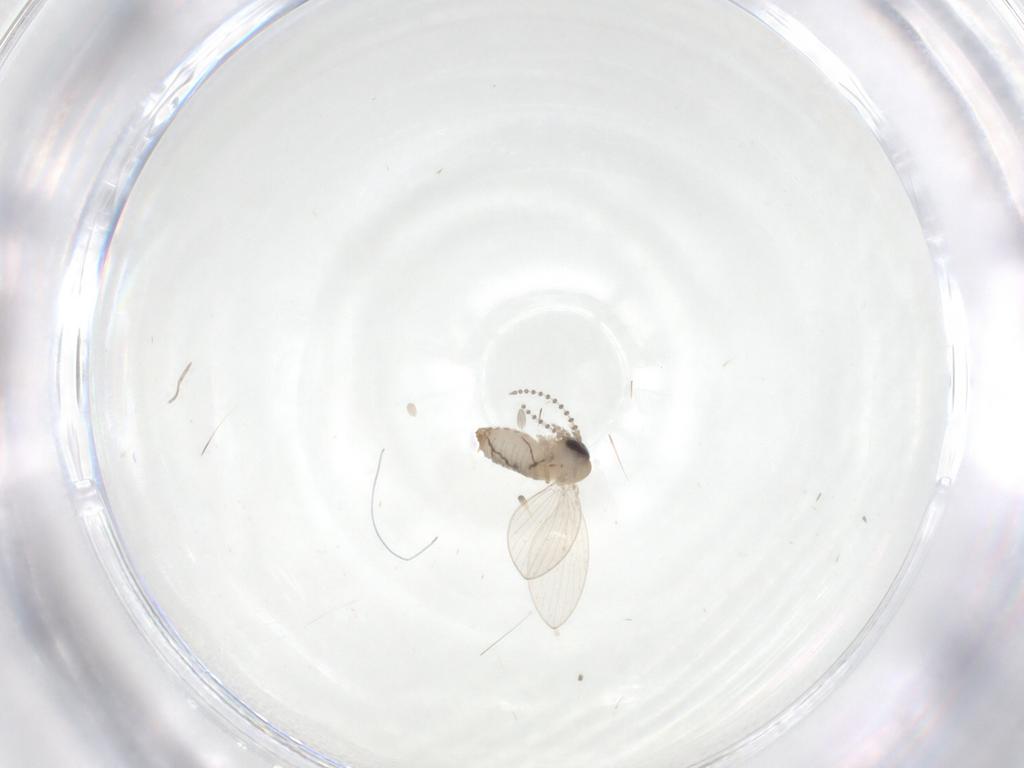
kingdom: Animalia
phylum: Arthropoda
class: Insecta
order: Diptera
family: Psychodidae
